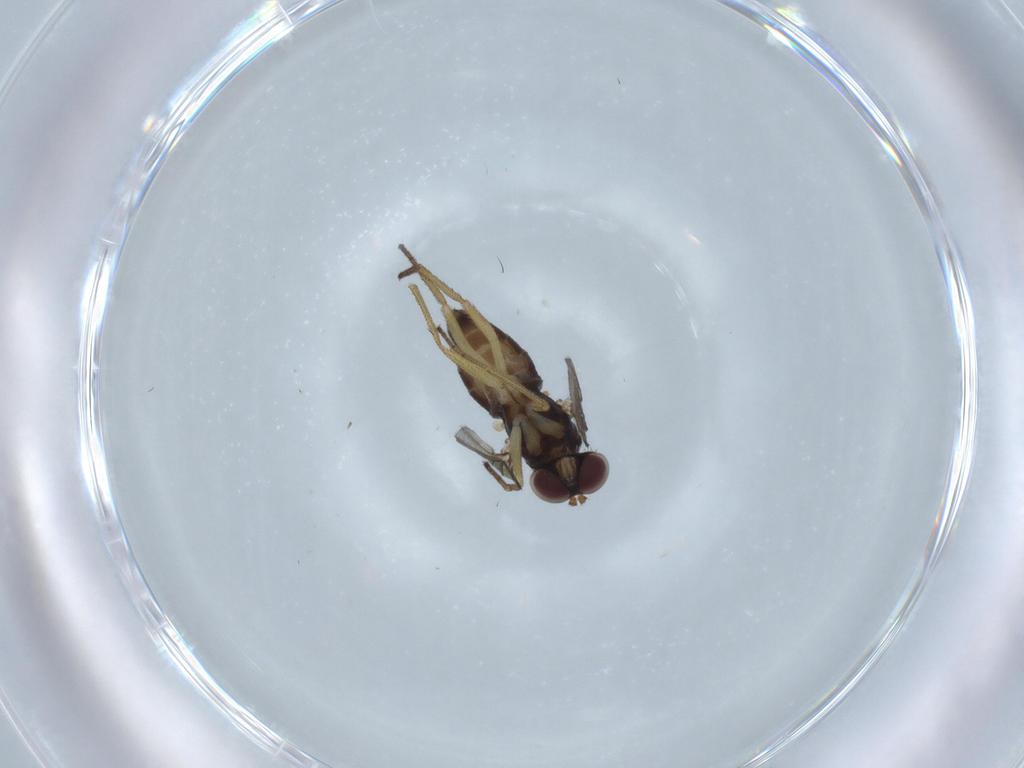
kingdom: Animalia
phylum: Arthropoda
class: Insecta
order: Diptera
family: Dolichopodidae
